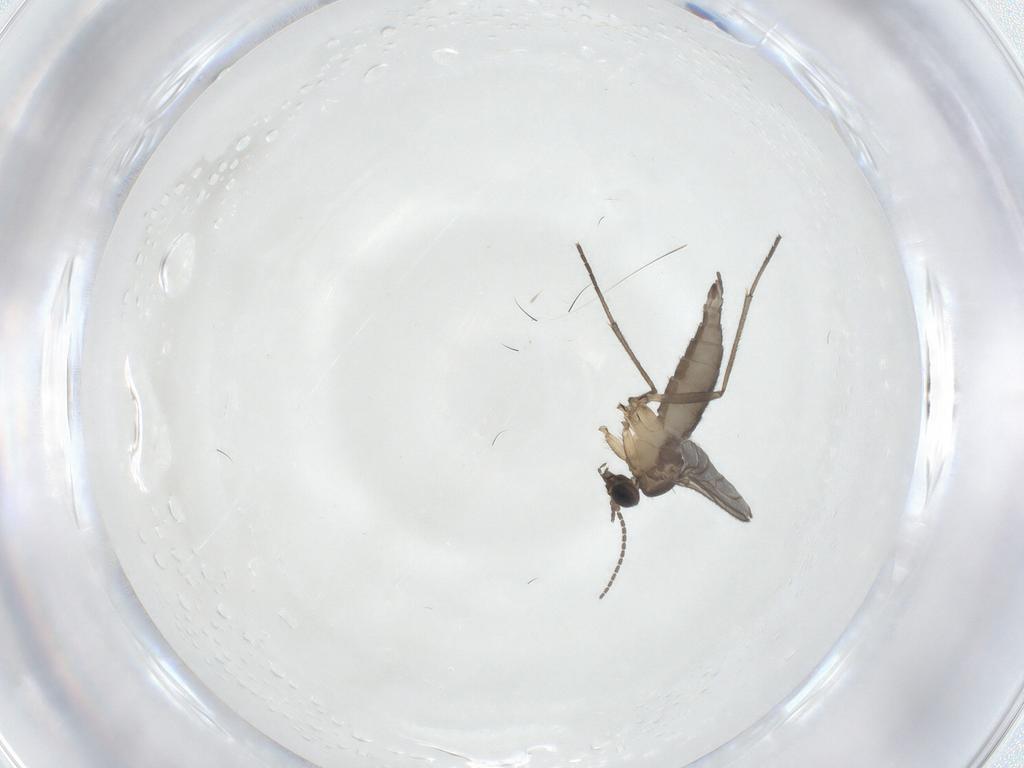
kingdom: Animalia
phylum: Arthropoda
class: Insecta
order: Diptera
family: Sciaridae
